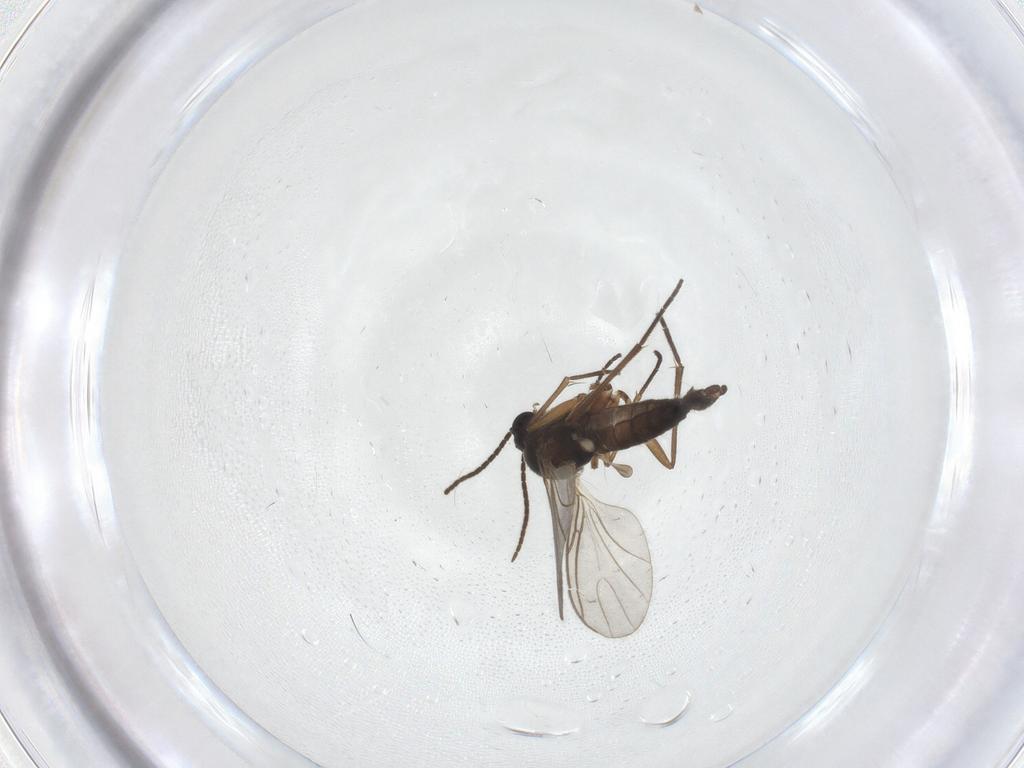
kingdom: Animalia
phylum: Arthropoda
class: Insecta
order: Diptera
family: Sciaridae
